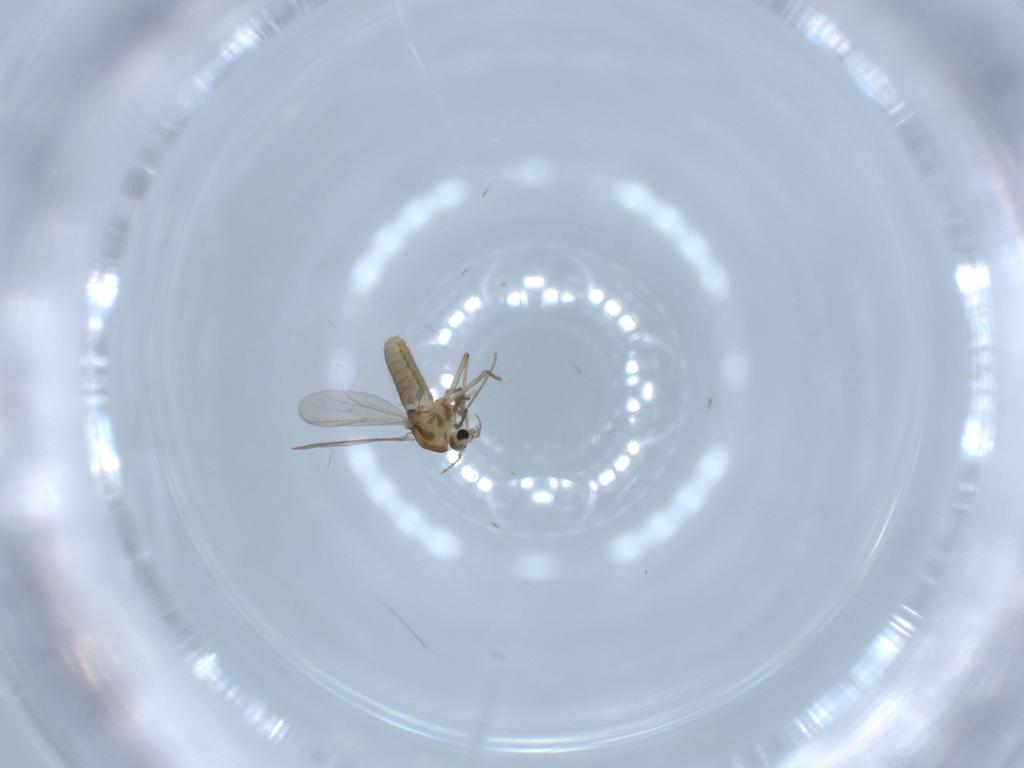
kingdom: Animalia
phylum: Arthropoda
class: Insecta
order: Diptera
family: Chironomidae
